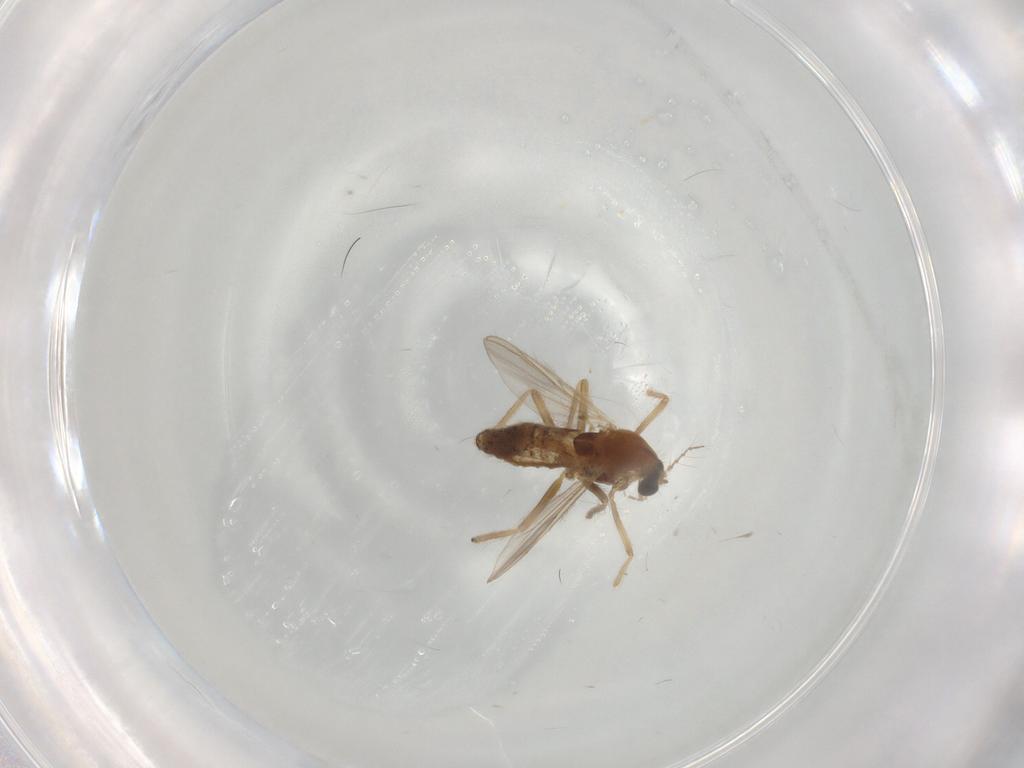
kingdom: Animalia
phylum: Arthropoda
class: Insecta
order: Diptera
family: Chironomidae
